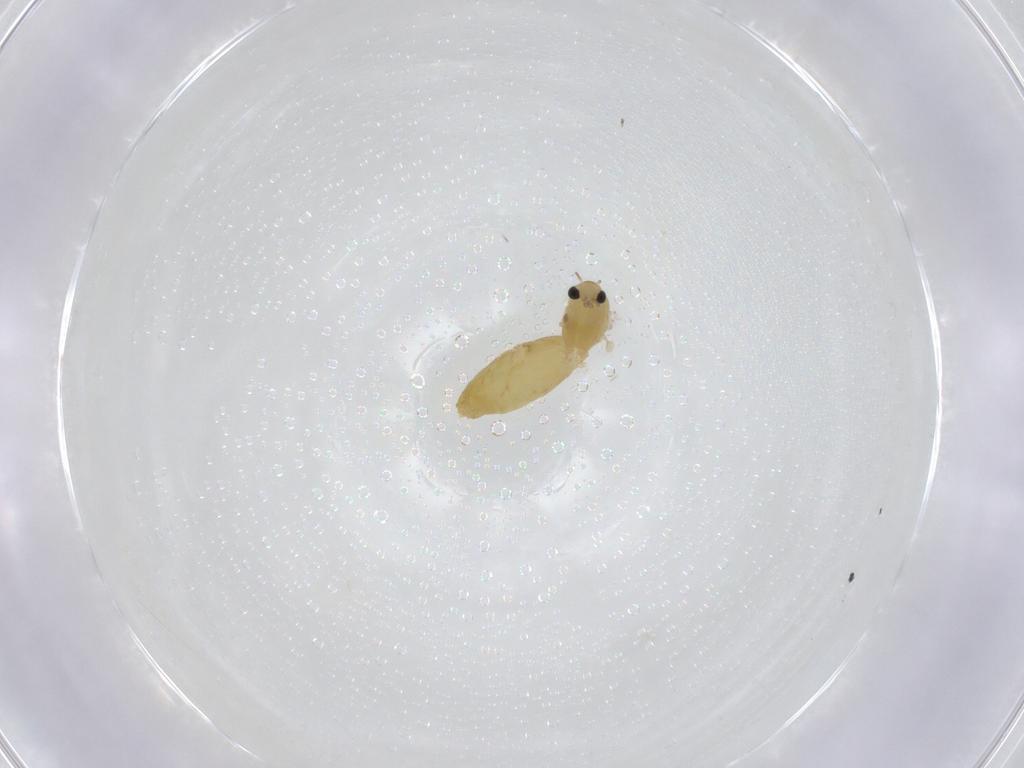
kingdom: Animalia
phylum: Arthropoda
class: Insecta
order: Diptera
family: Chironomidae
